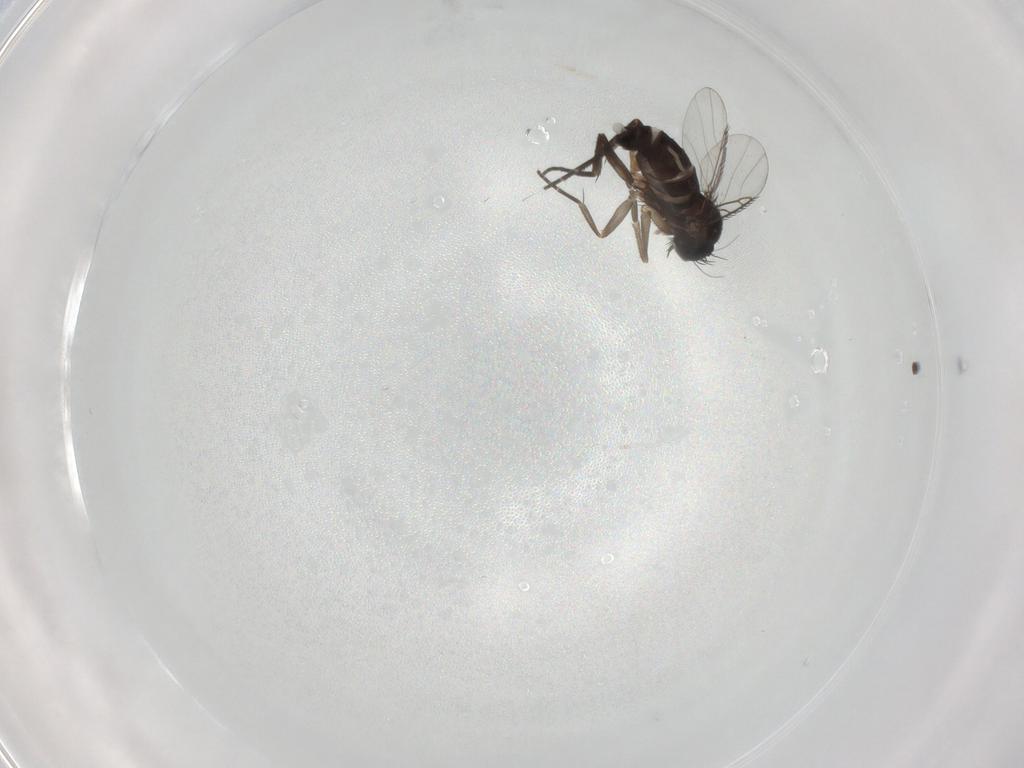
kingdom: Animalia
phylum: Arthropoda
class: Insecta
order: Diptera
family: Phoridae
